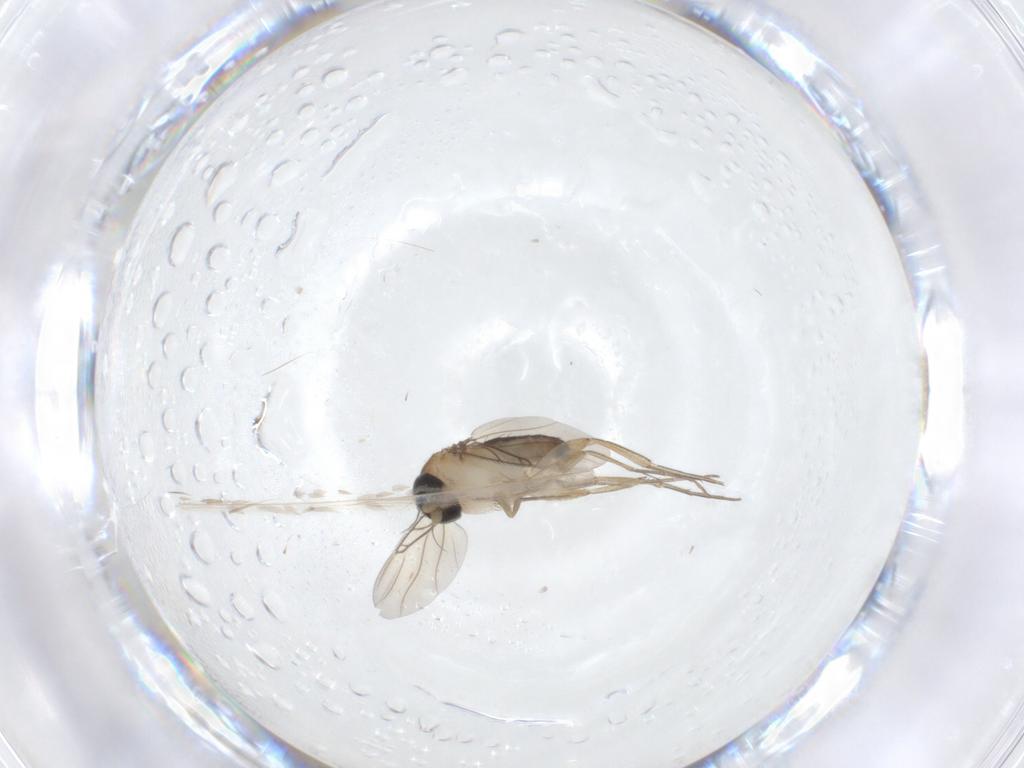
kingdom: Animalia
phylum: Arthropoda
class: Insecta
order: Diptera
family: Phoridae
